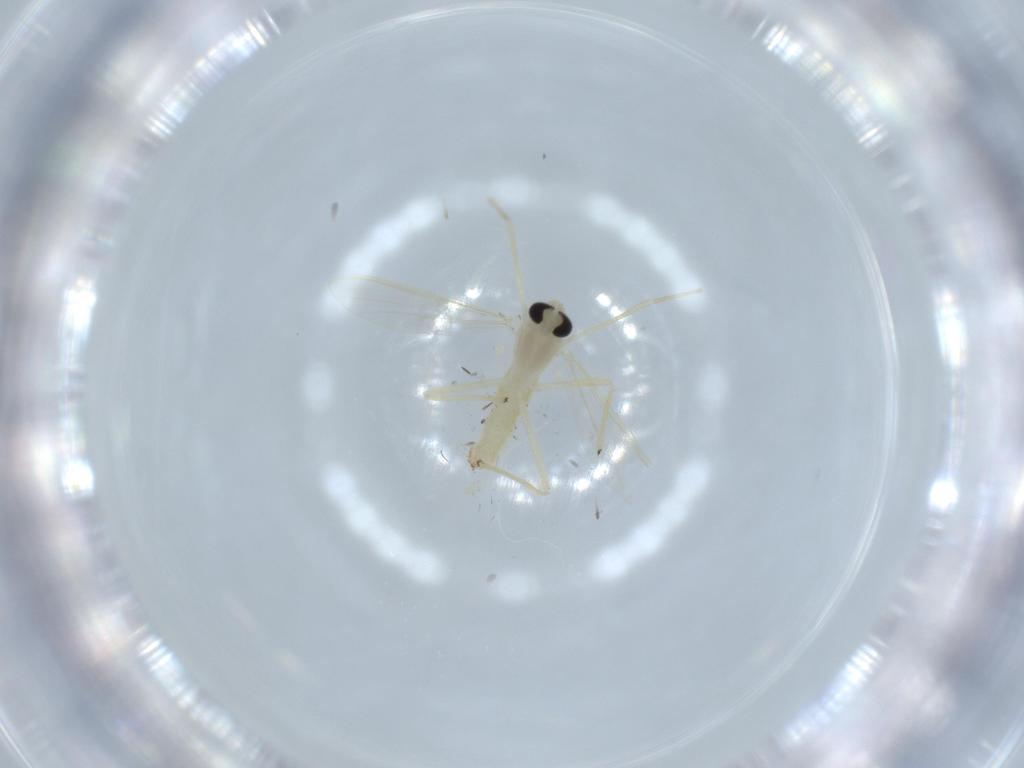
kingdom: Animalia
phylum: Arthropoda
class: Insecta
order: Diptera
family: Chironomidae
